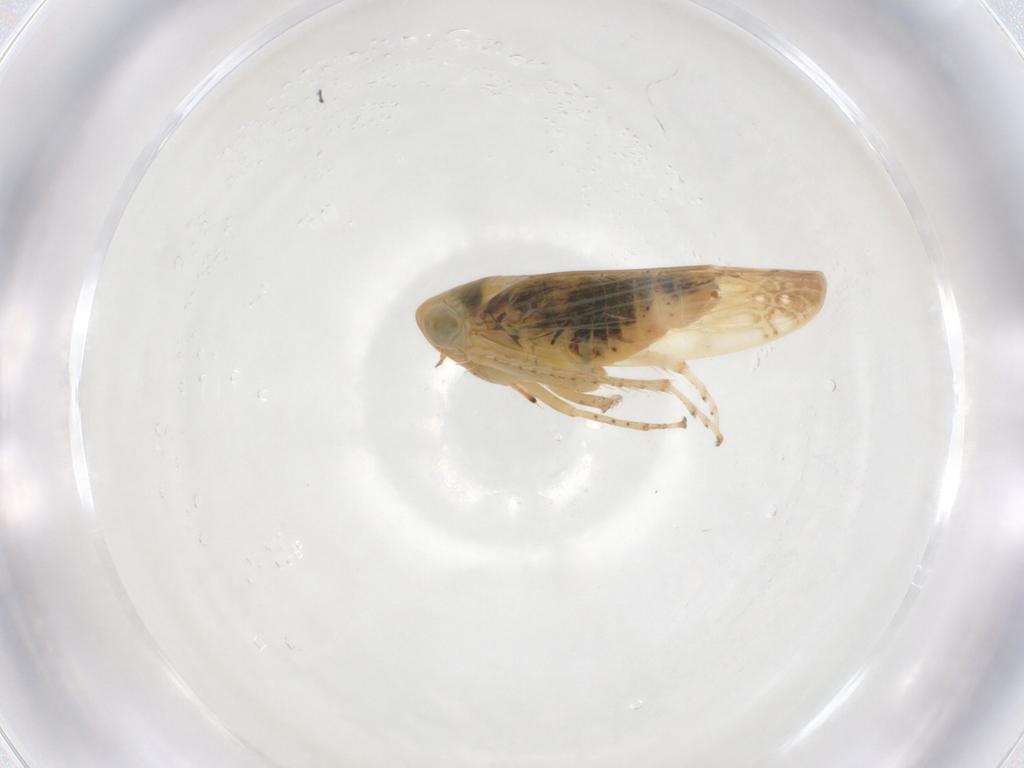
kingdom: Animalia
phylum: Arthropoda
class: Insecta
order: Hemiptera
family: Cicadellidae
